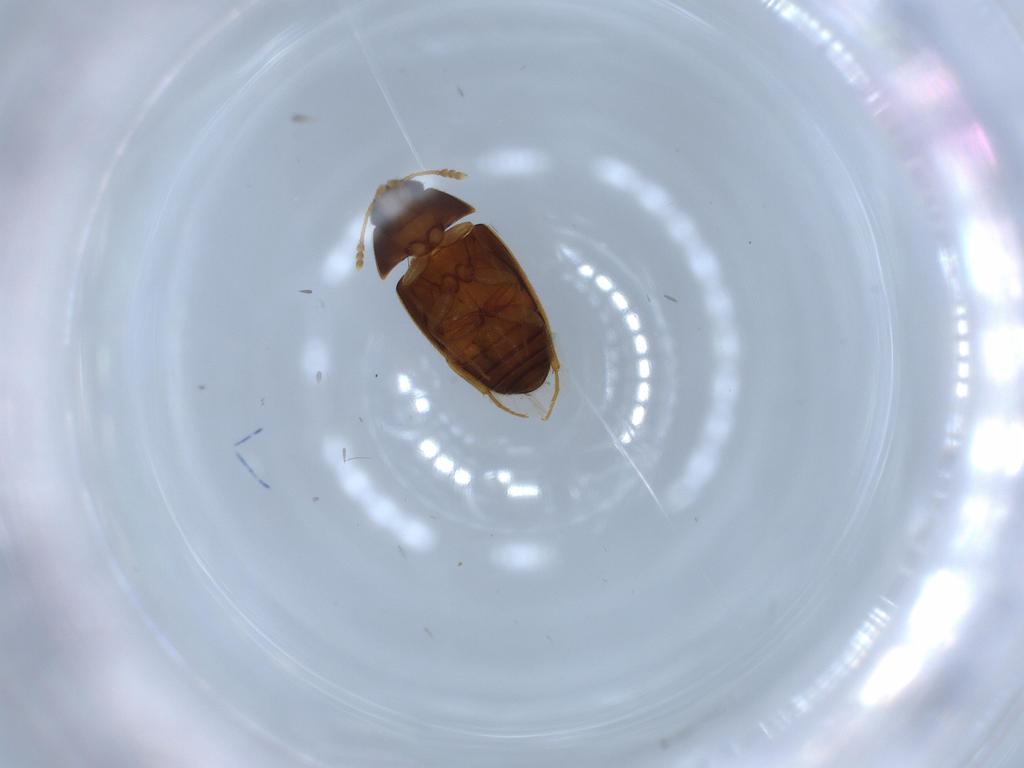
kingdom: Animalia
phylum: Arthropoda
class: Insecta
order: Coleoptera
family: Mycetophagidae
